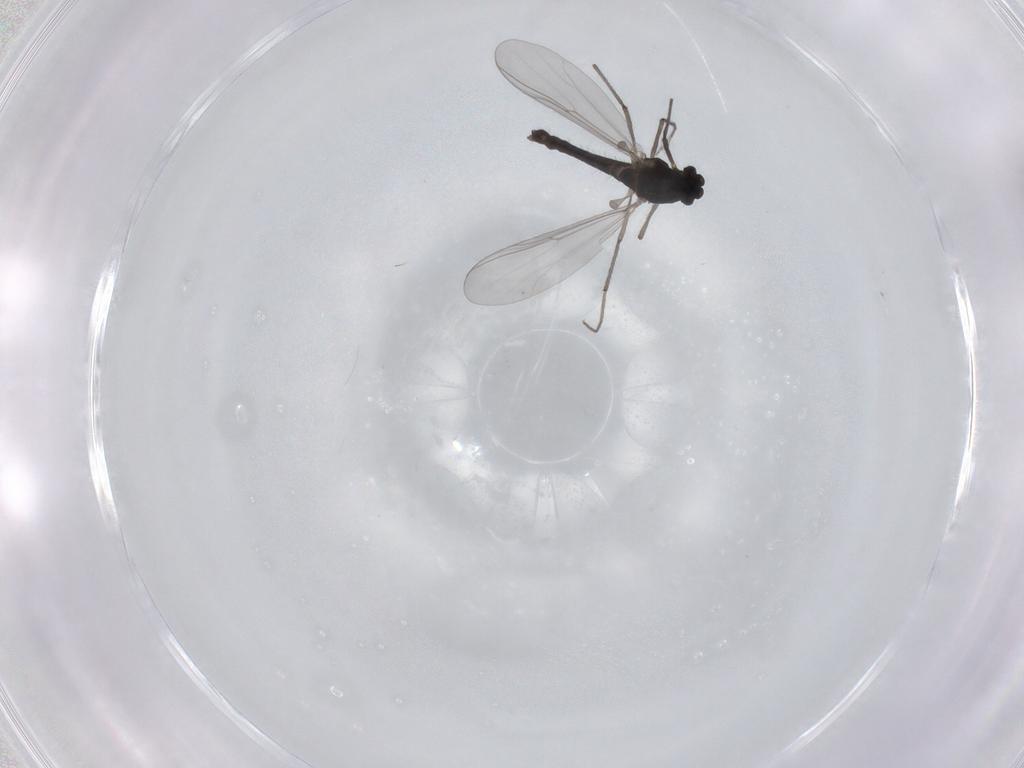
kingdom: Animalia
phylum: Arthropoda
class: Insecta
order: Diptera
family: Chironomidae
